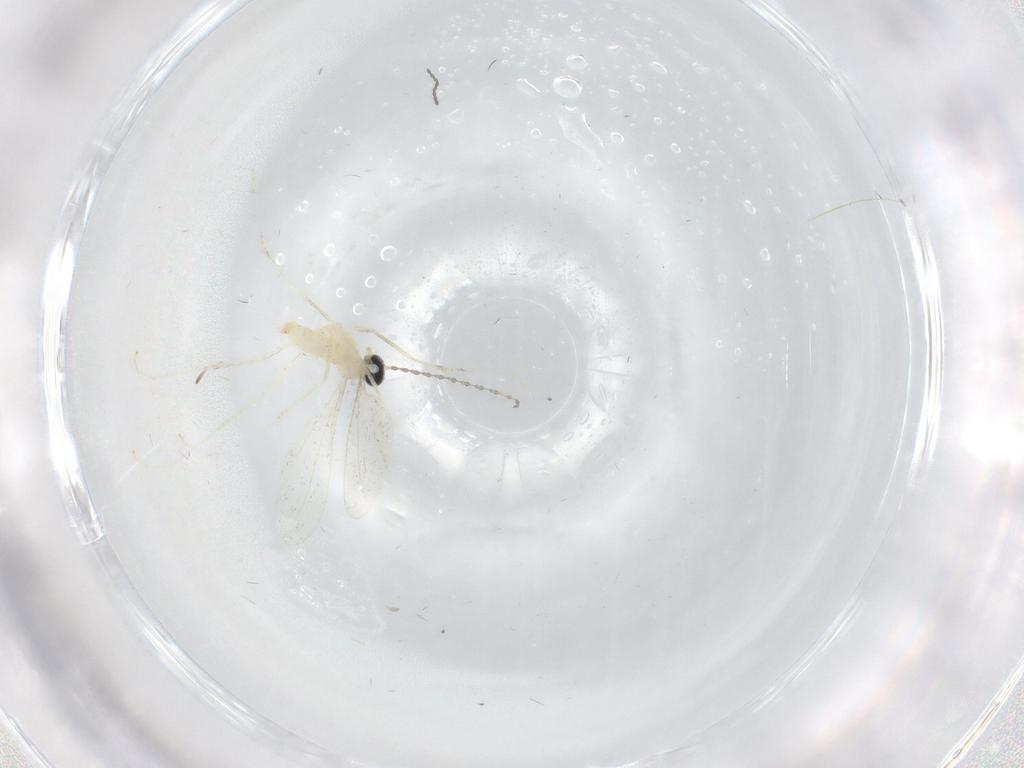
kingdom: Animalia
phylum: Arthropoda
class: Insecta
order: Diptera
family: Cecidomyiidae
